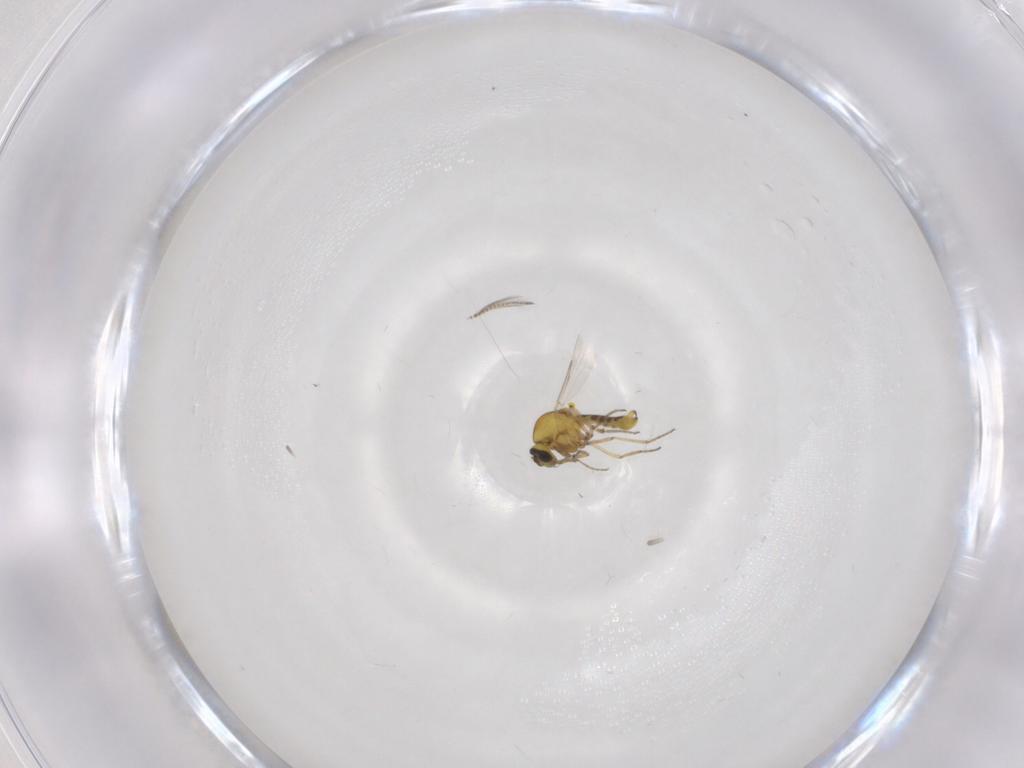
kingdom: Animalia
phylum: Arthropoda
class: Insecta
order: Diptera
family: Ceratopogonidae
